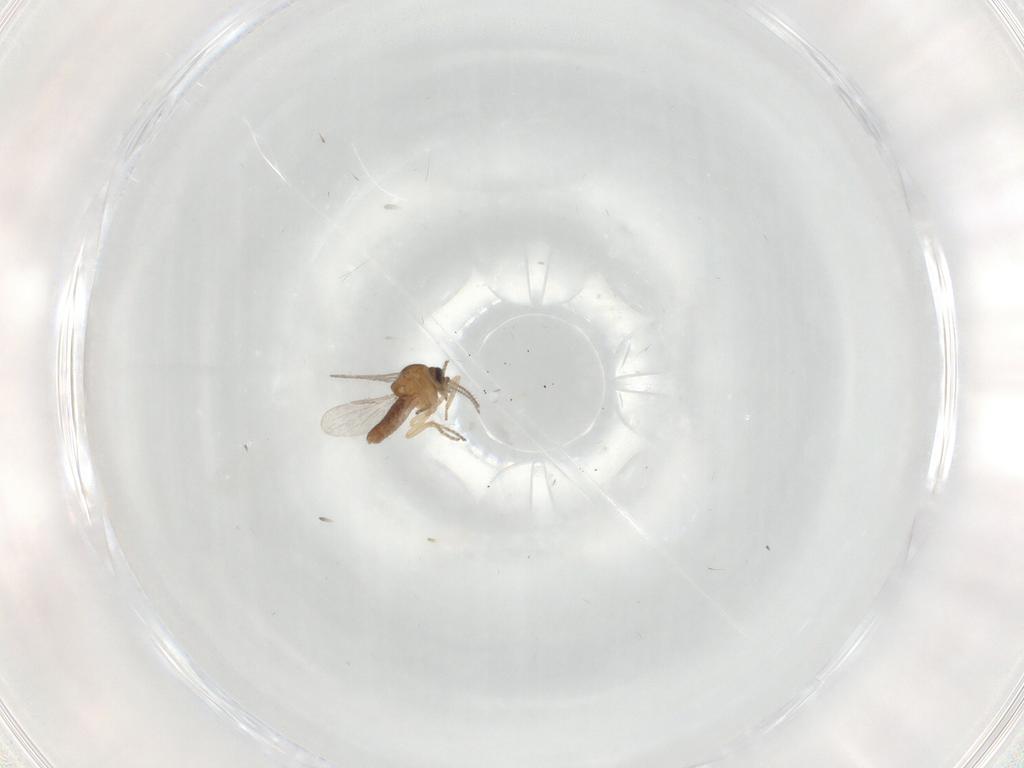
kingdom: Animalia
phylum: Arthropoda
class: Insecta
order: Diptera
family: Ceratopogonidae
